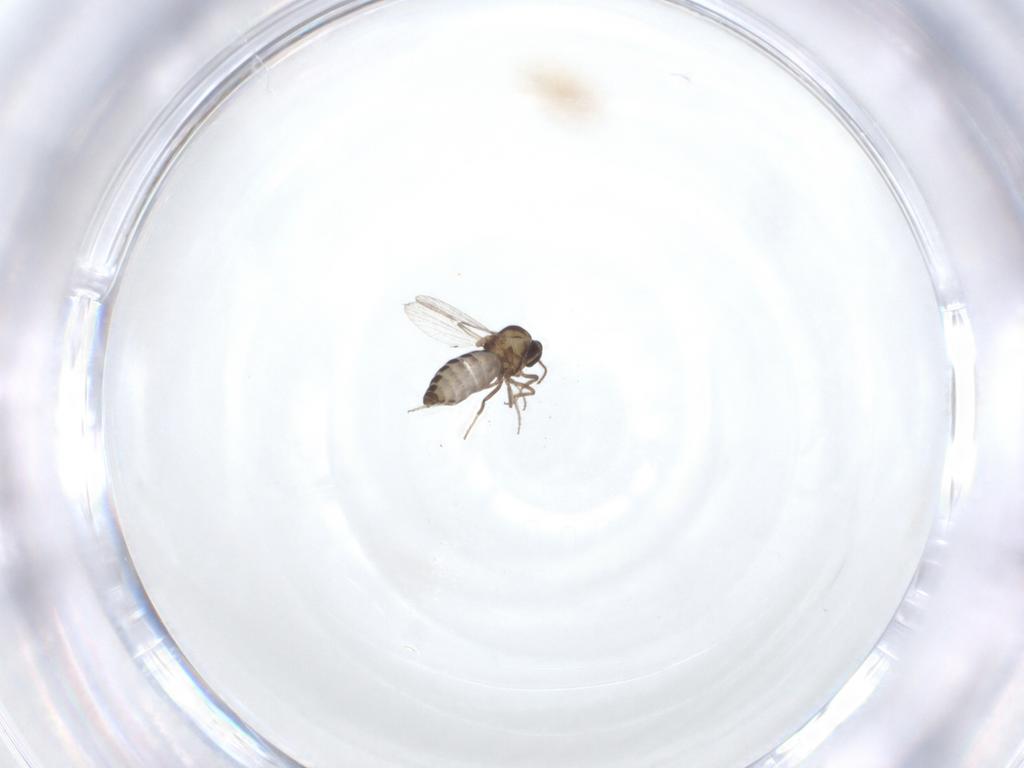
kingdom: Animalia
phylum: Arthropoda
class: Insecta
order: Diptera
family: Ceratopogonidae
